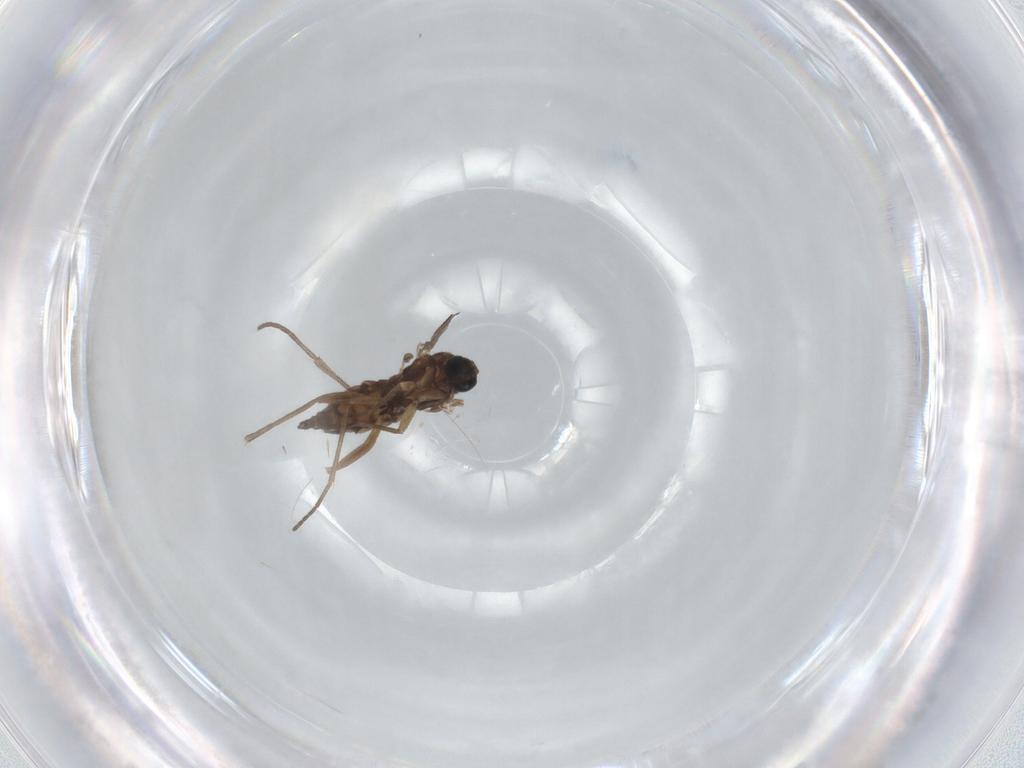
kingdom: Animalia
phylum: Arthropoda
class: Insecta
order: Diptera
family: Sciaridae
